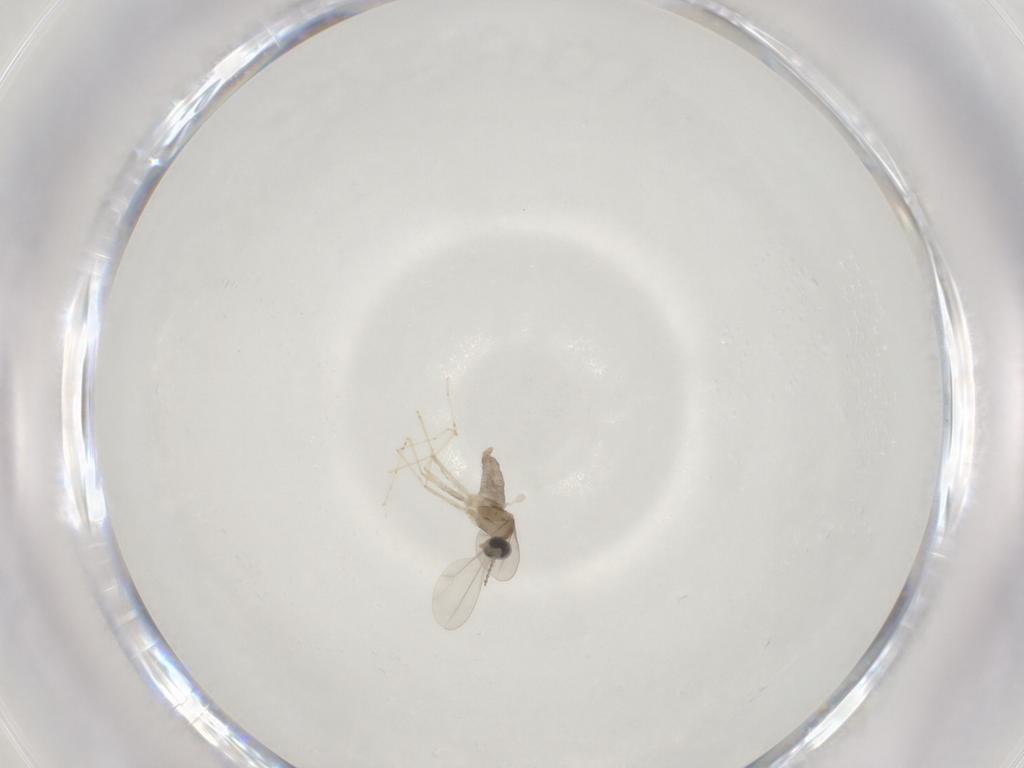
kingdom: Animalia
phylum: Arthropoda
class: Insecta
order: Diptera
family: Cecidomyiidae
